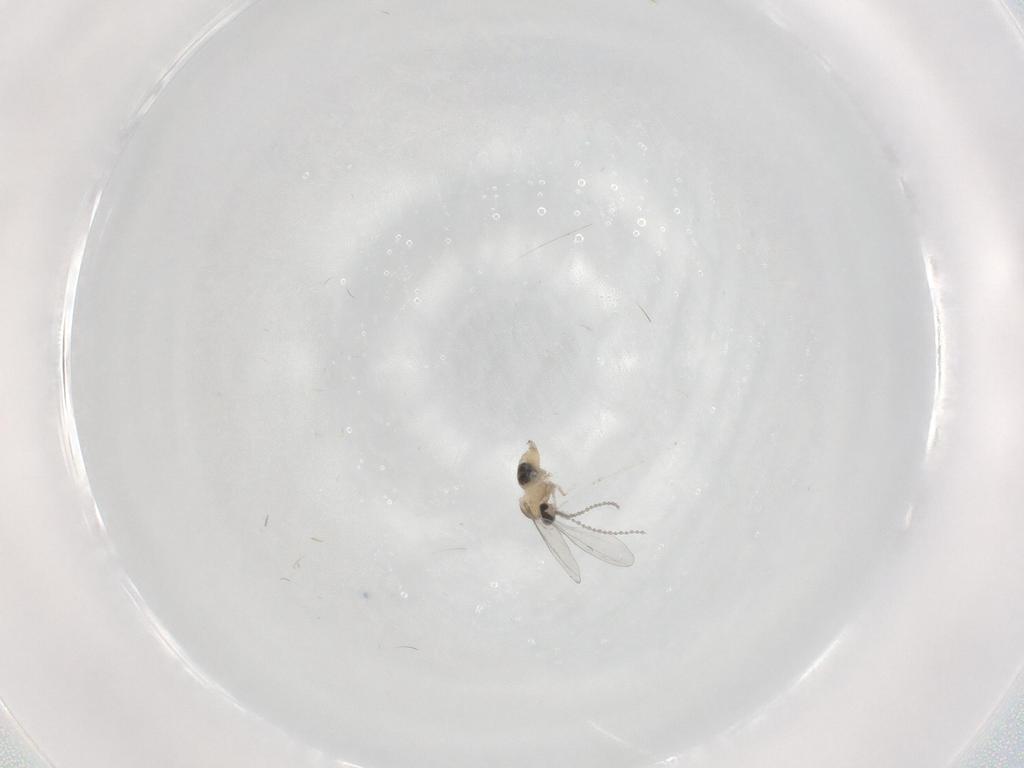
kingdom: Animalia
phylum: Arthropoda
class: Insecta
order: Diptera
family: Cecidomyiidae
